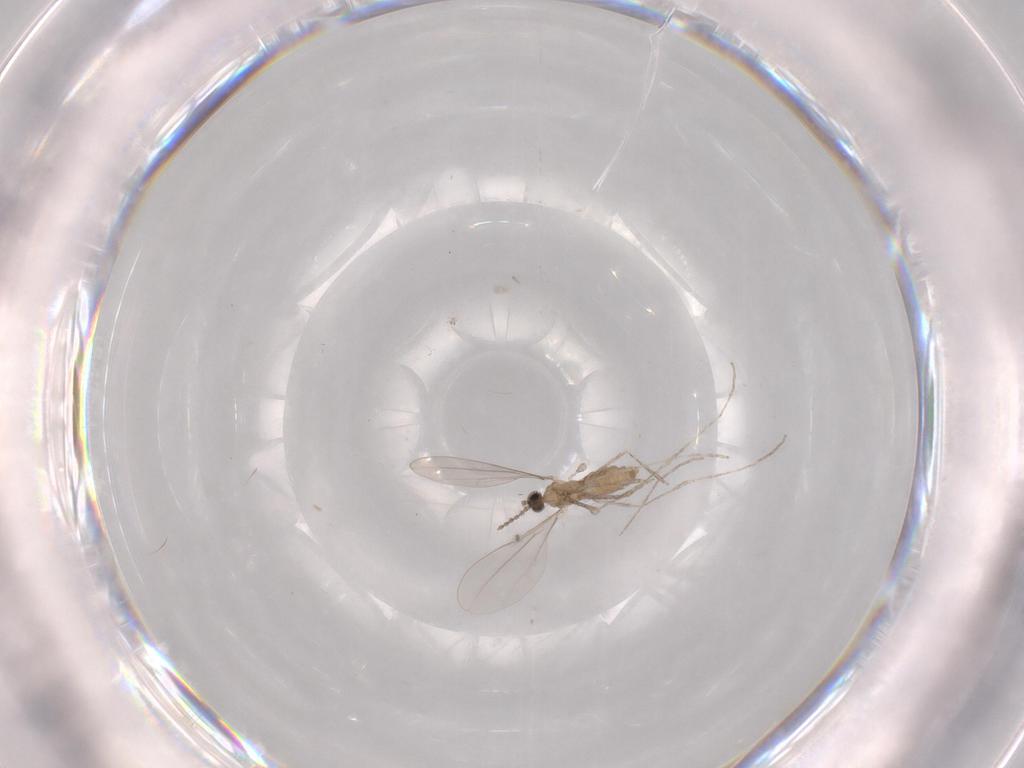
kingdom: Animalia
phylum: Arthropoda
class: Insecta
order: Diptera
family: Cecidomyiidae
